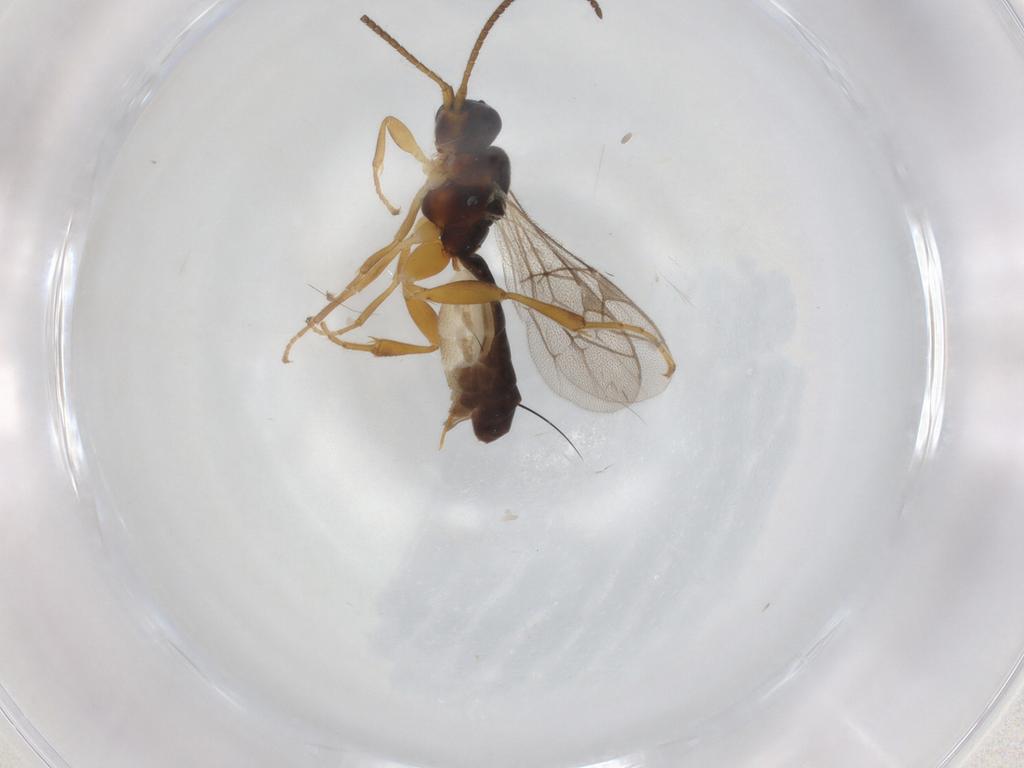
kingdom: Animalia
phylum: Arthropoda
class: Insecta
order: Hymenoptera
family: Ichneumonidae
